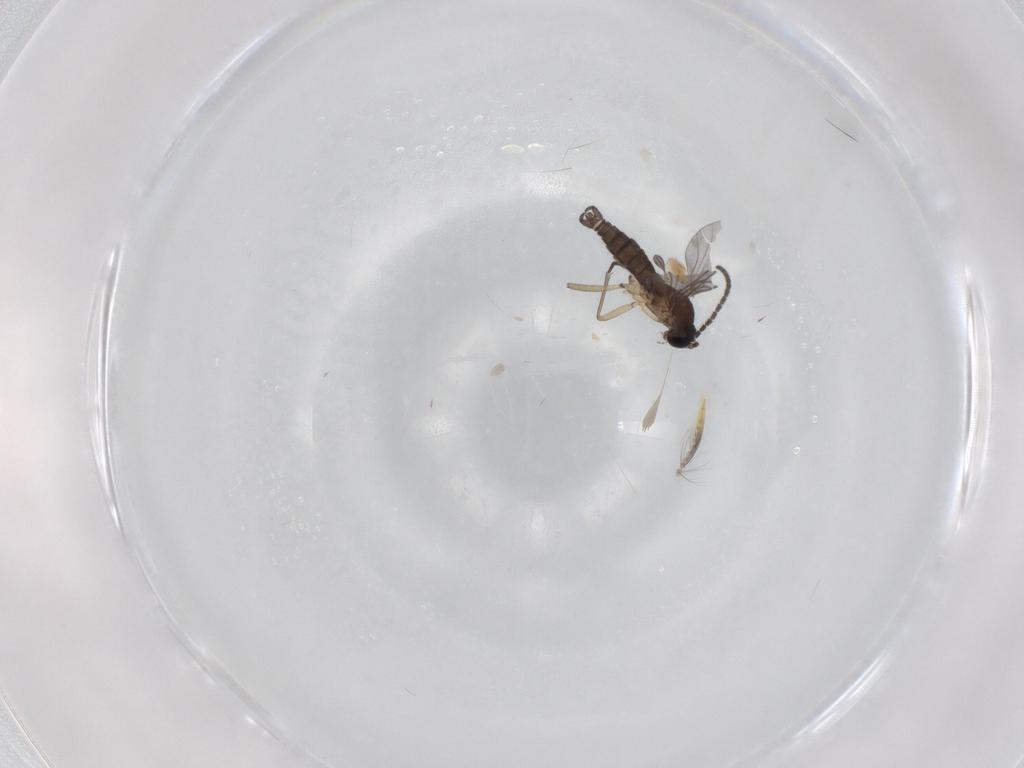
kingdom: Animalia
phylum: Arthropoda
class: Insecta
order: Diptera
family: Sciaridae
